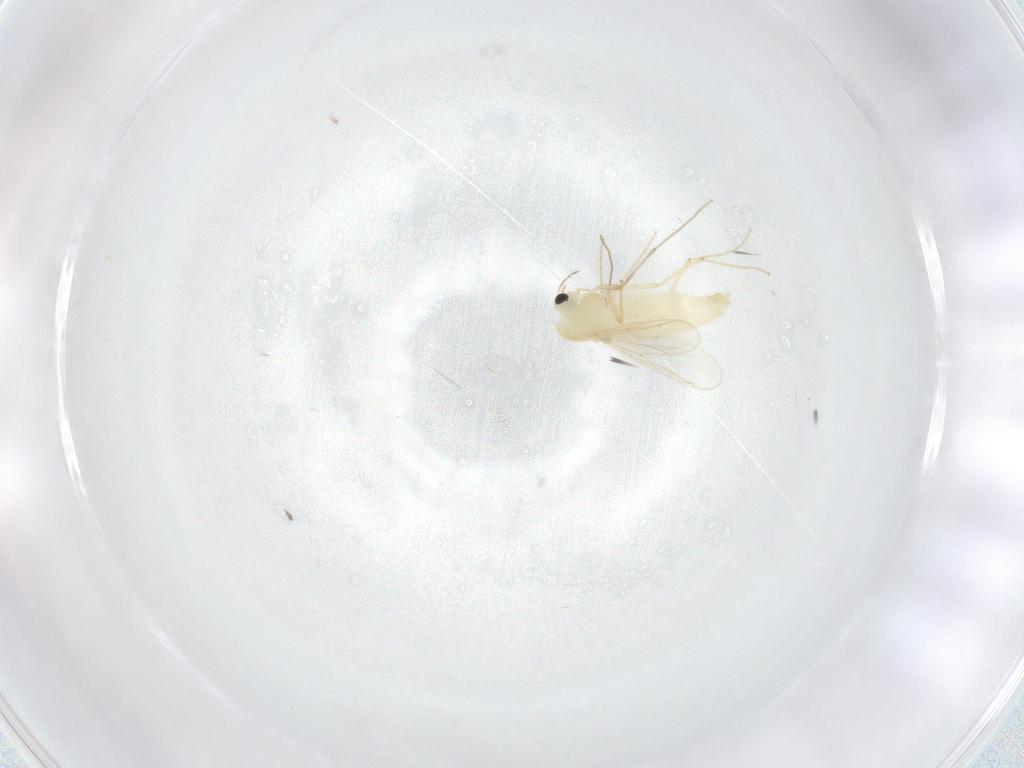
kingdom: Animalia
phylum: Arthropoda
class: Insecta
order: Diptera
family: Chironomidae
